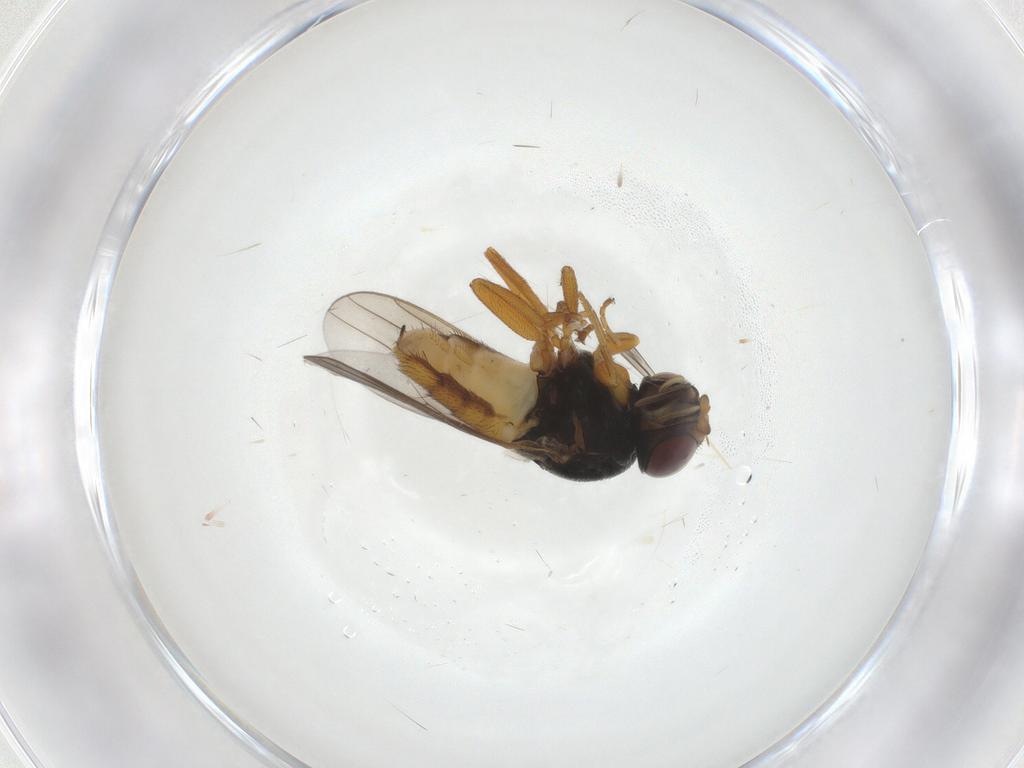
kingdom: Animalia
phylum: Arthropoda
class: Insecta
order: Diptera
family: Chloropidae
